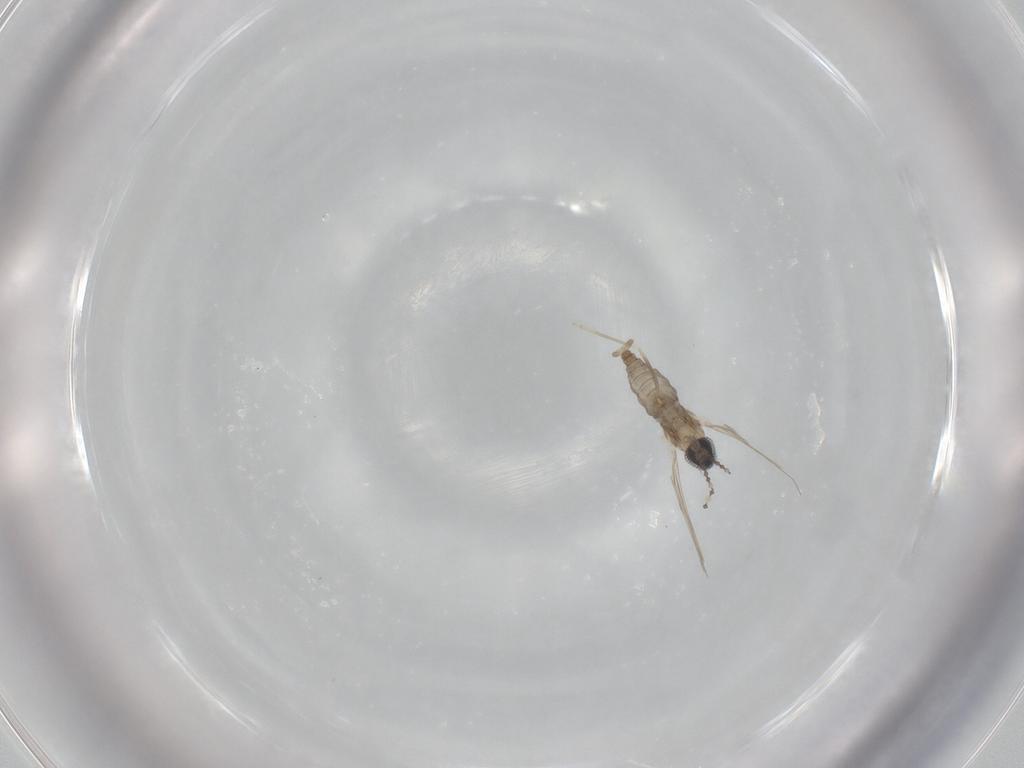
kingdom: Animalia
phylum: Arthropoda
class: Insecta
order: Diptera
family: Cecidomyiidae
